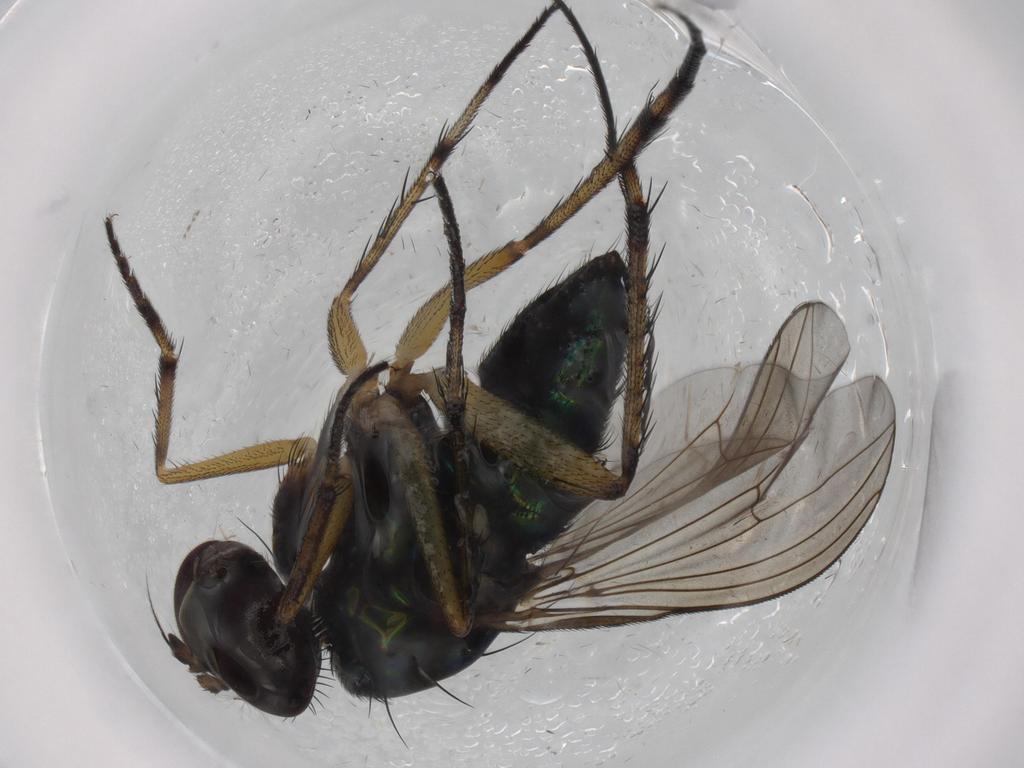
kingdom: Animalia
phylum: Arthropoda
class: Insecta
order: Diptera
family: Dolichopodidae
